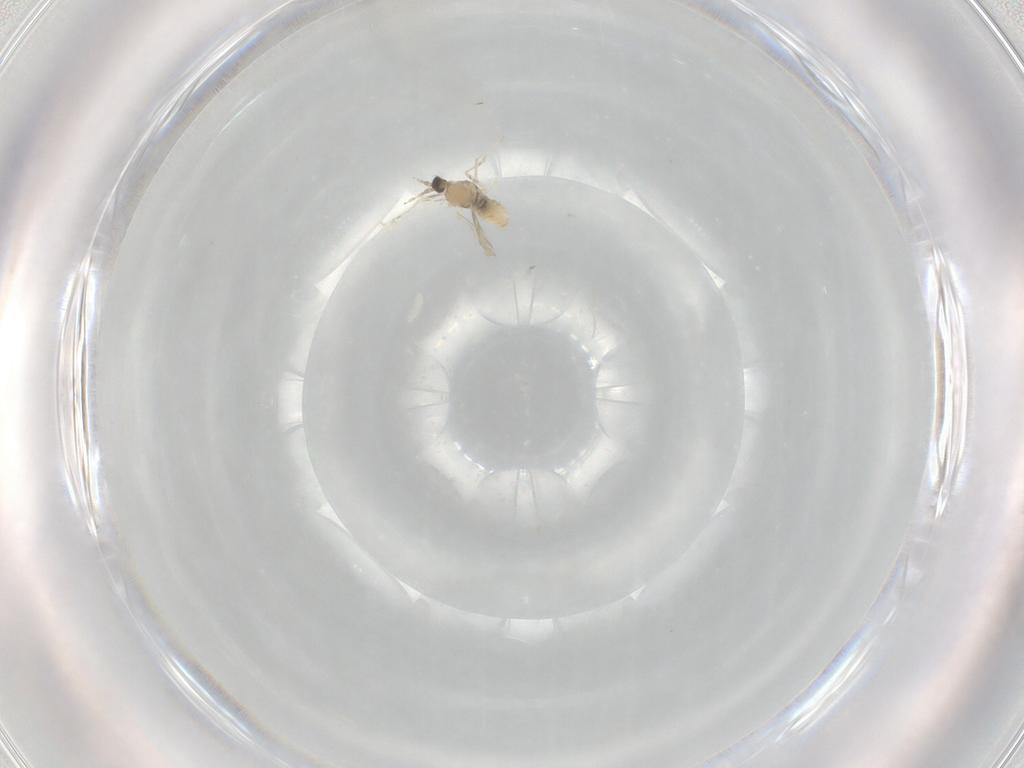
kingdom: Animalia
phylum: Arthropoda
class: Insecta
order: Diptera
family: Cecidomyiidae
